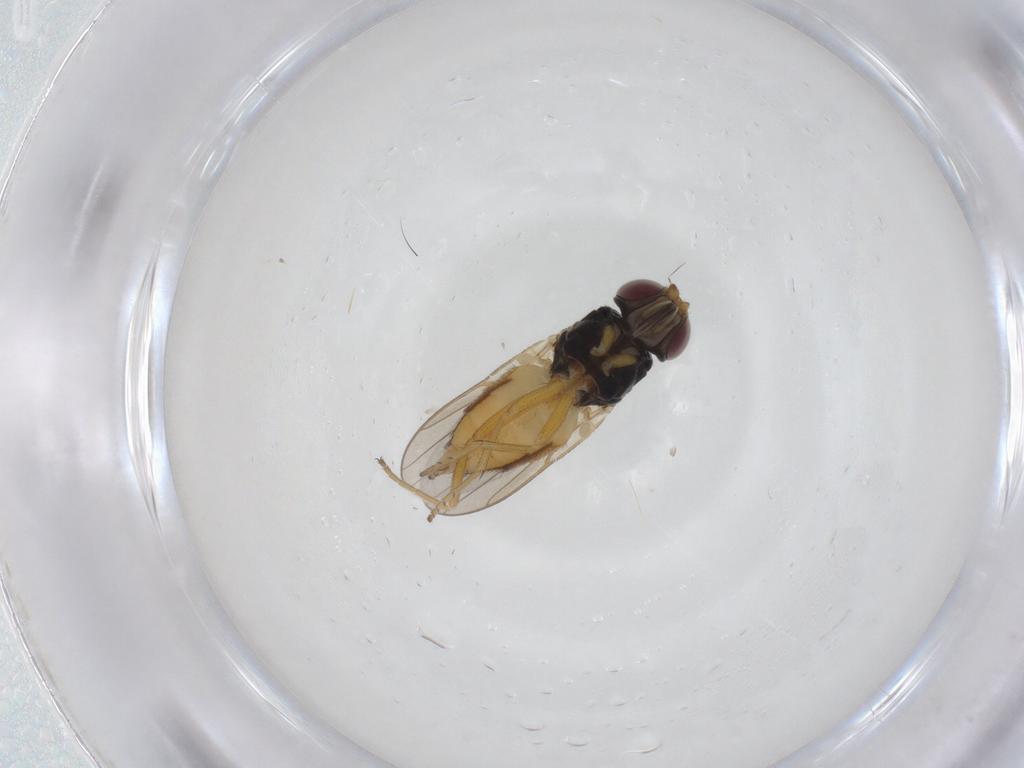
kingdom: Animalia
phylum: Arthropoda
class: Insecta
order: Diptera
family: Chloropidae
